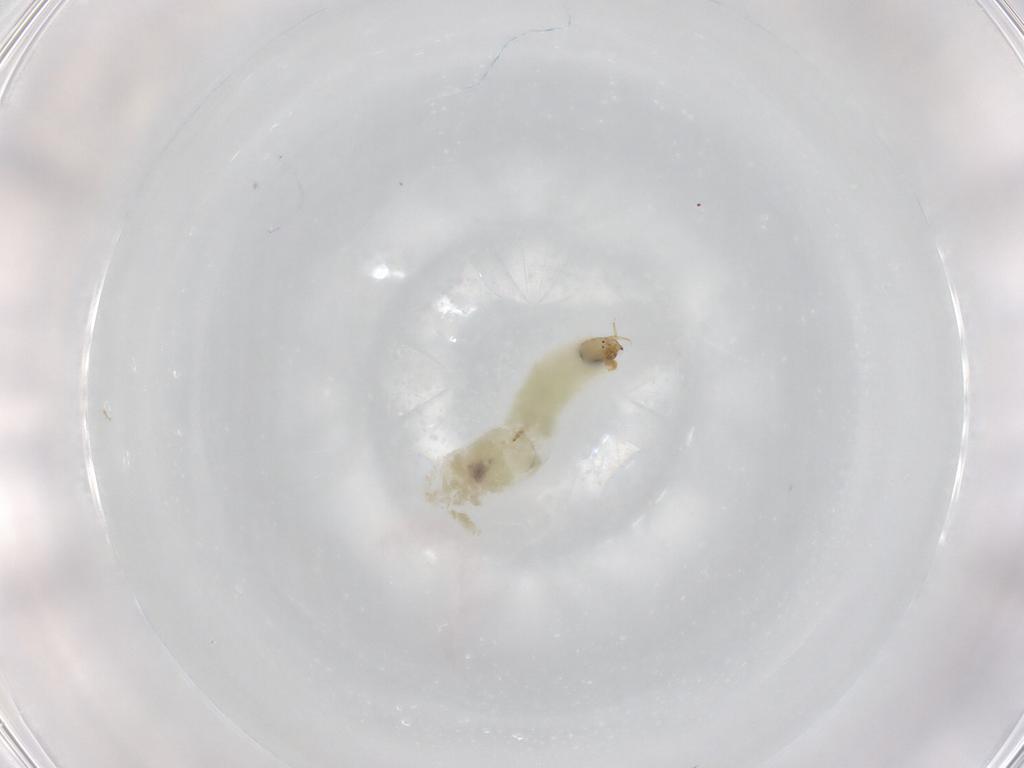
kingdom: Animalia
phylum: Arthropoda
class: Insecta
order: Diptera
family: Chironomidae
